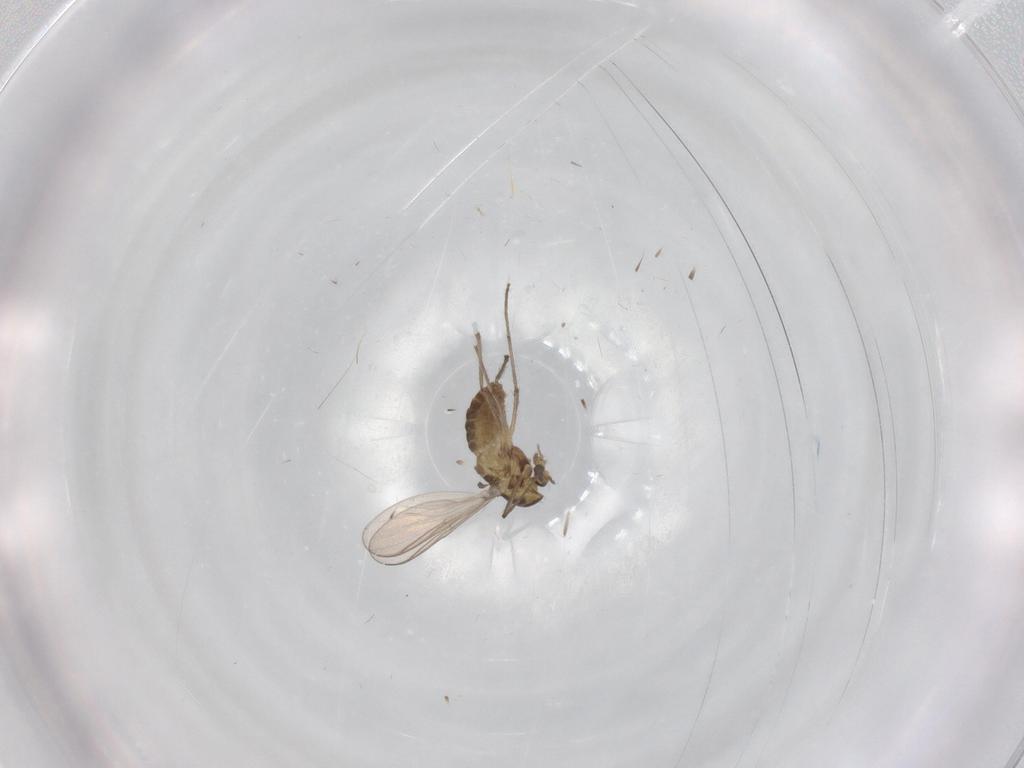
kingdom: Animalia
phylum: Arthropoda
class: Insecta
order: Diptera
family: Chironomidae
